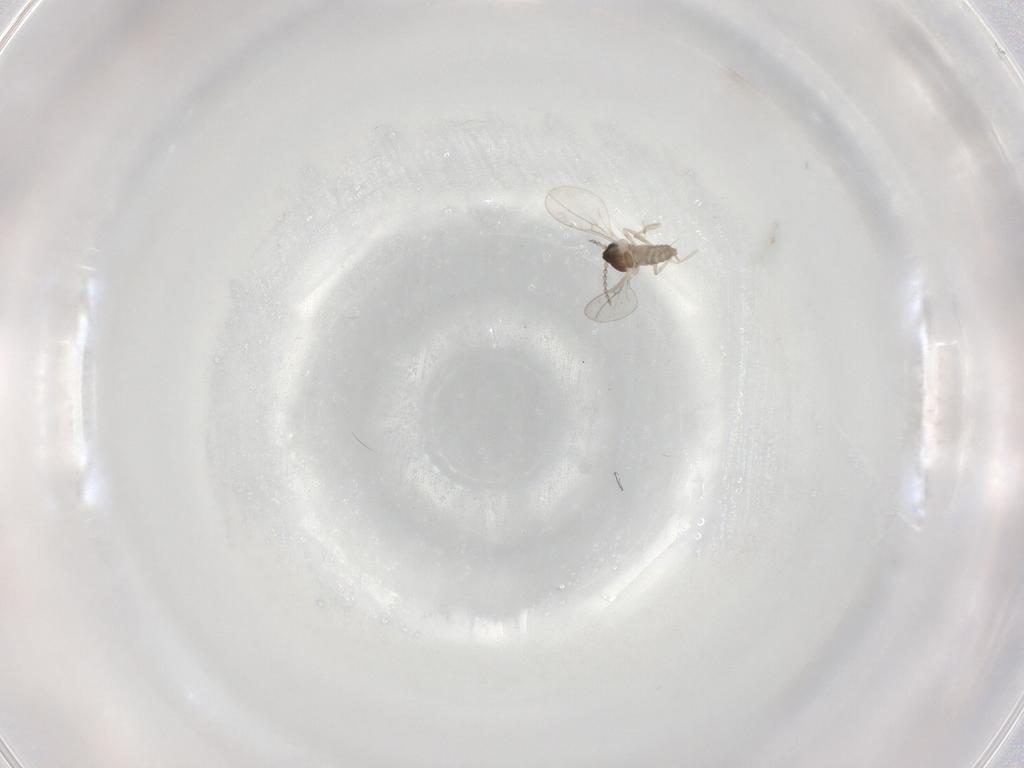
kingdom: Animalia
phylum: Arthropoda
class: Insecta
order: Diptera
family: Cecidomyiidae
